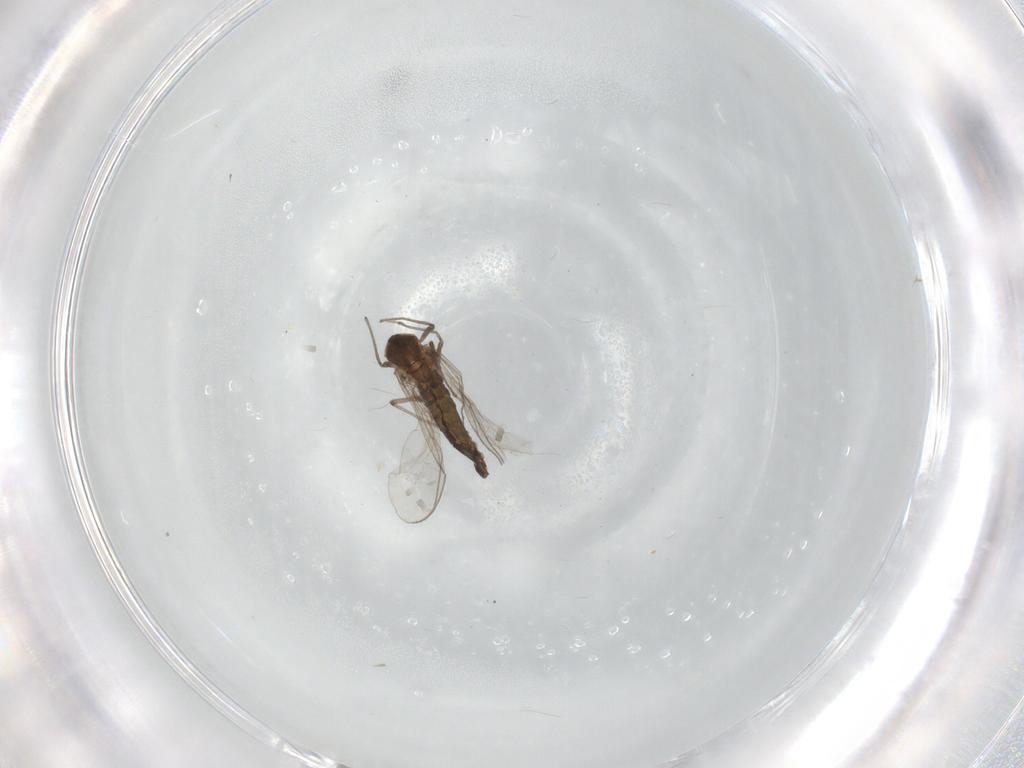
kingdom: Animalia
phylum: Arthropoda
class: Insecta
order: Diptera
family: Chironomidae
